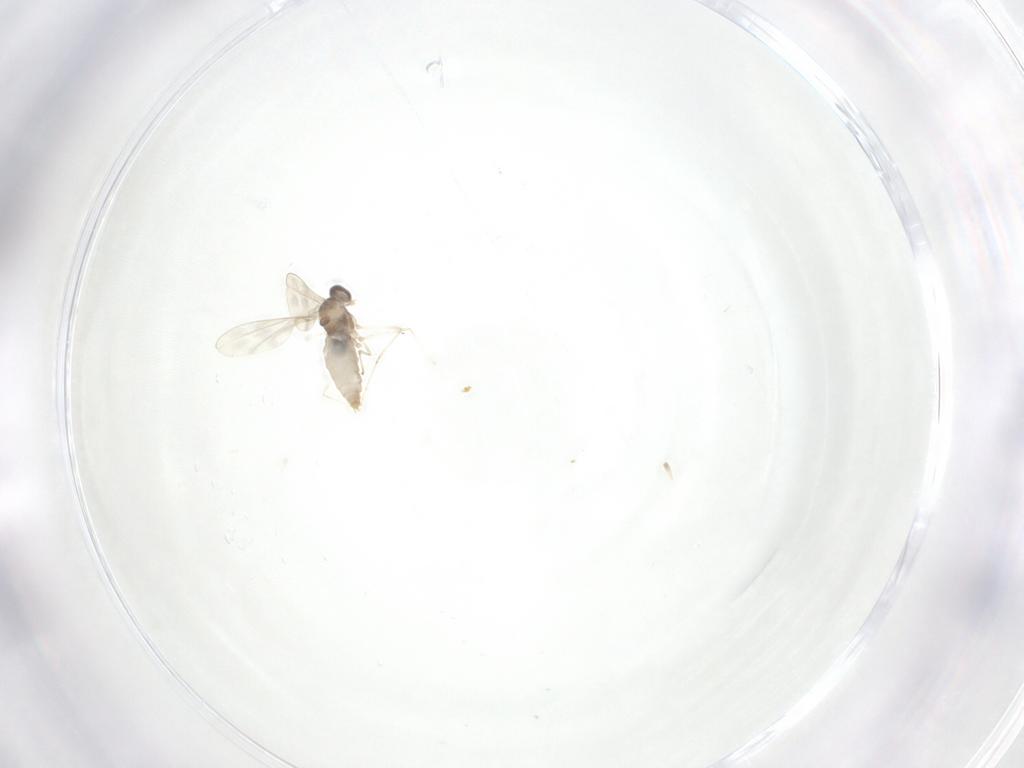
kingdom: Animalia
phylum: Arthropoda
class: Insecta
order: Diptera
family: Cecidomyiidae
